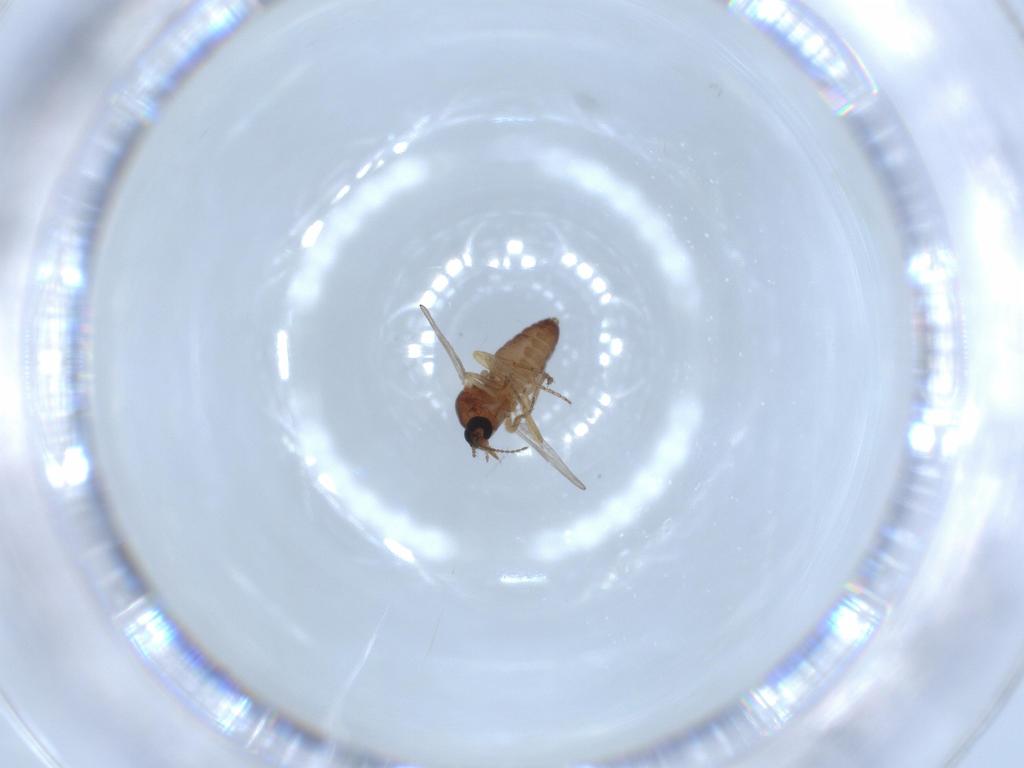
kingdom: Animalia
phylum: Arthropoda
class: Insecta
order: Diptera
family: Ceratopogonidae
